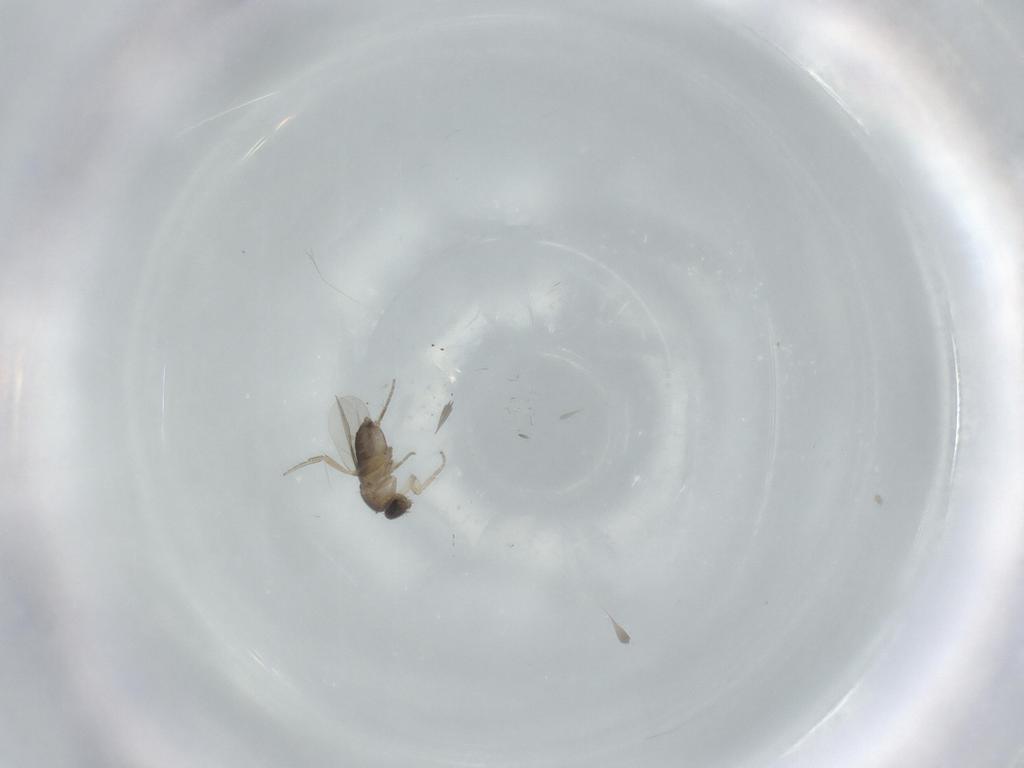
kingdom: Animalia
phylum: Arthropoda
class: Insecta
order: Diptera
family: Phoridae
